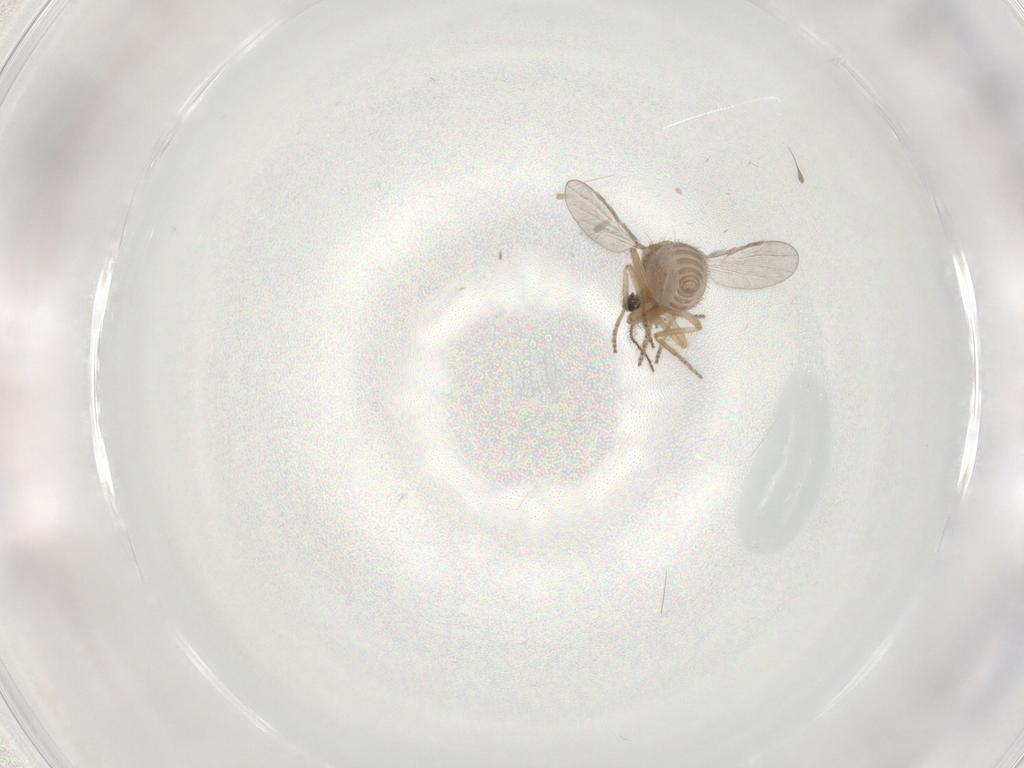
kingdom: Animalia
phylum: Arthropoda
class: Insecta
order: Diptera
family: Ceratopogonidae
